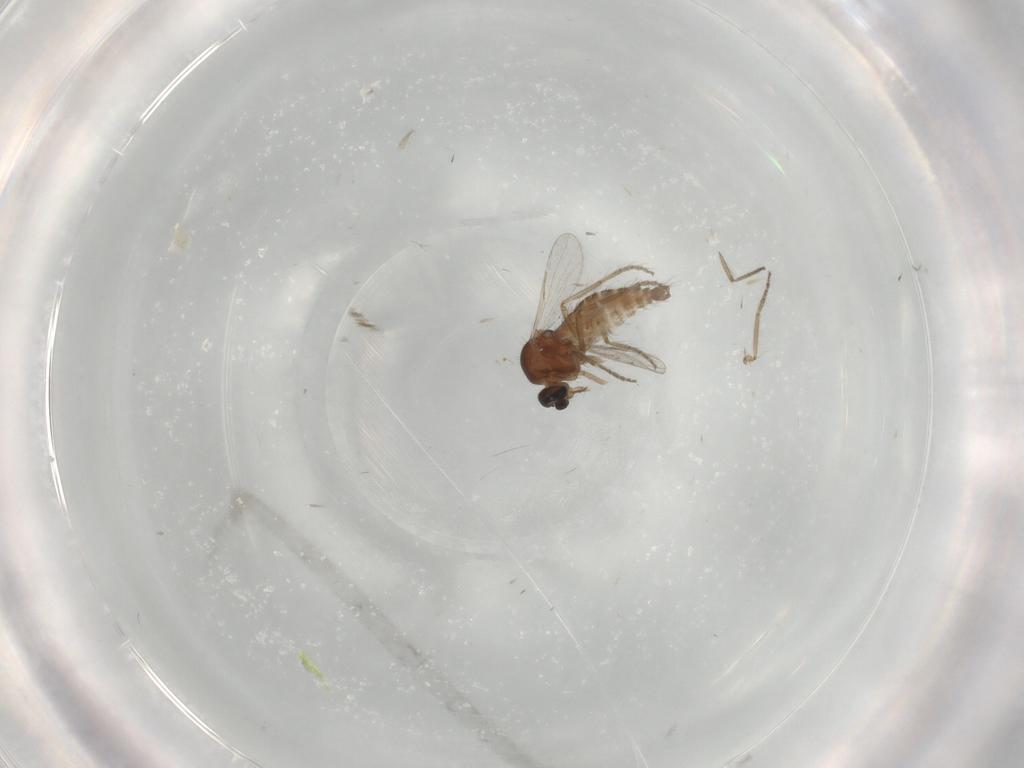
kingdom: Animalia
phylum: Arthropoda
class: Insecta
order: Diptera
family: Ceratopogonidae
